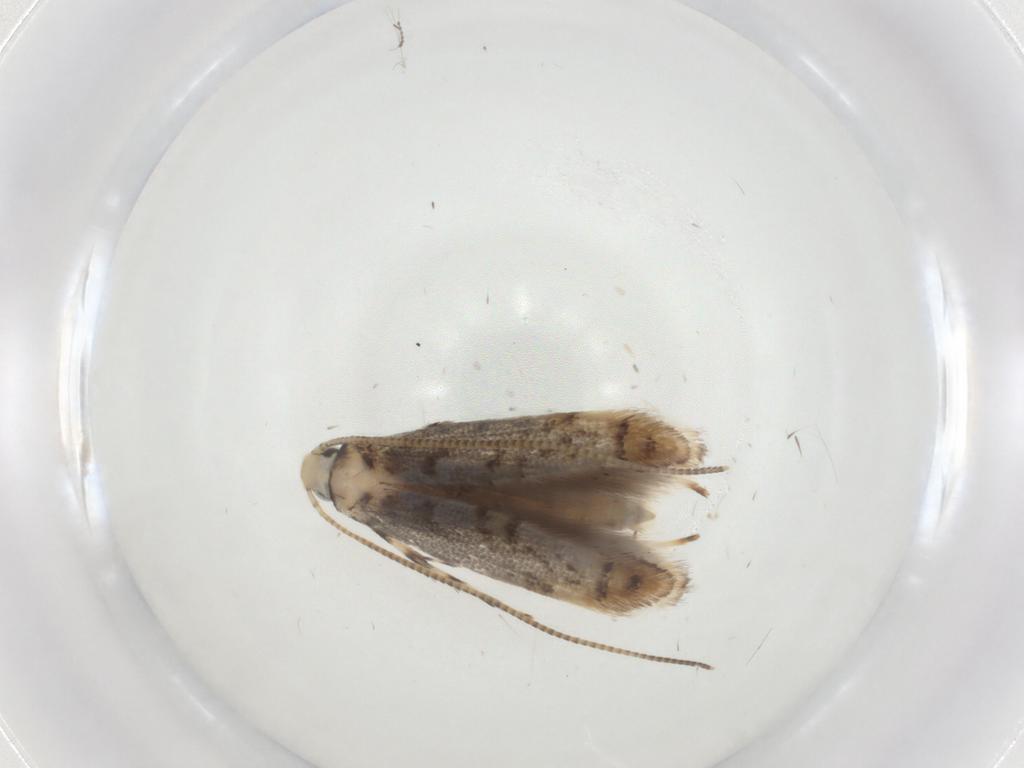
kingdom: Animalia
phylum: Arthropoda
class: Insecta
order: Lepidoptera
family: Gracillariidae
